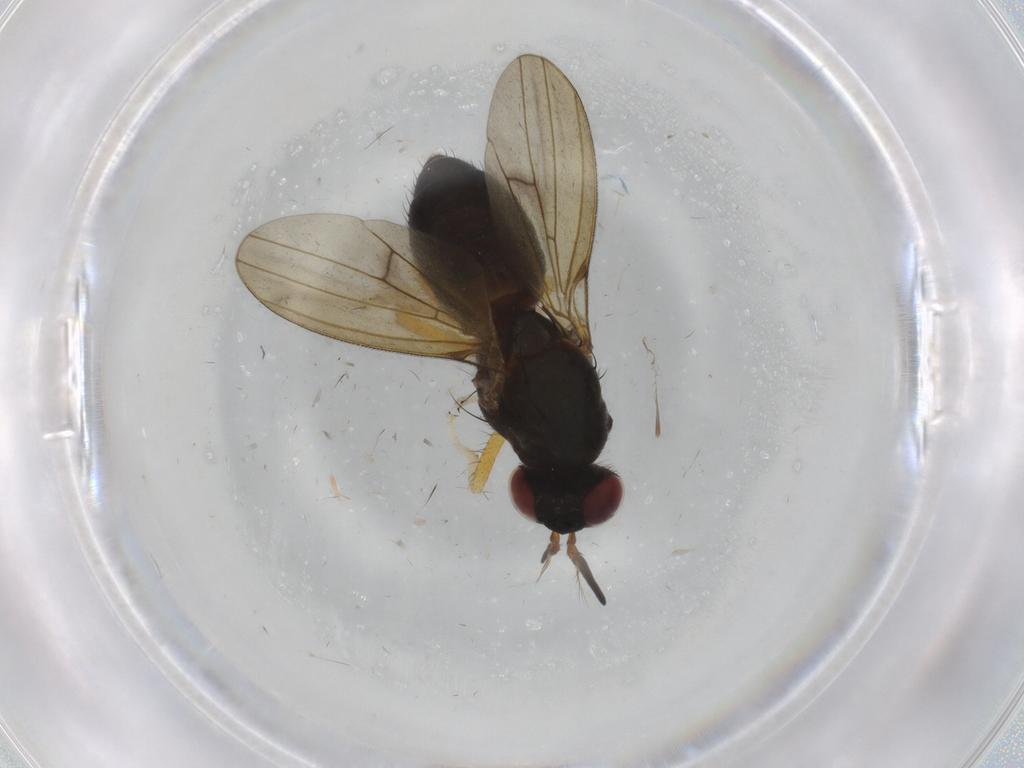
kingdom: Animalia
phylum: Arthropoda
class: Insecta
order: Diptera
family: Lauxaniidae
